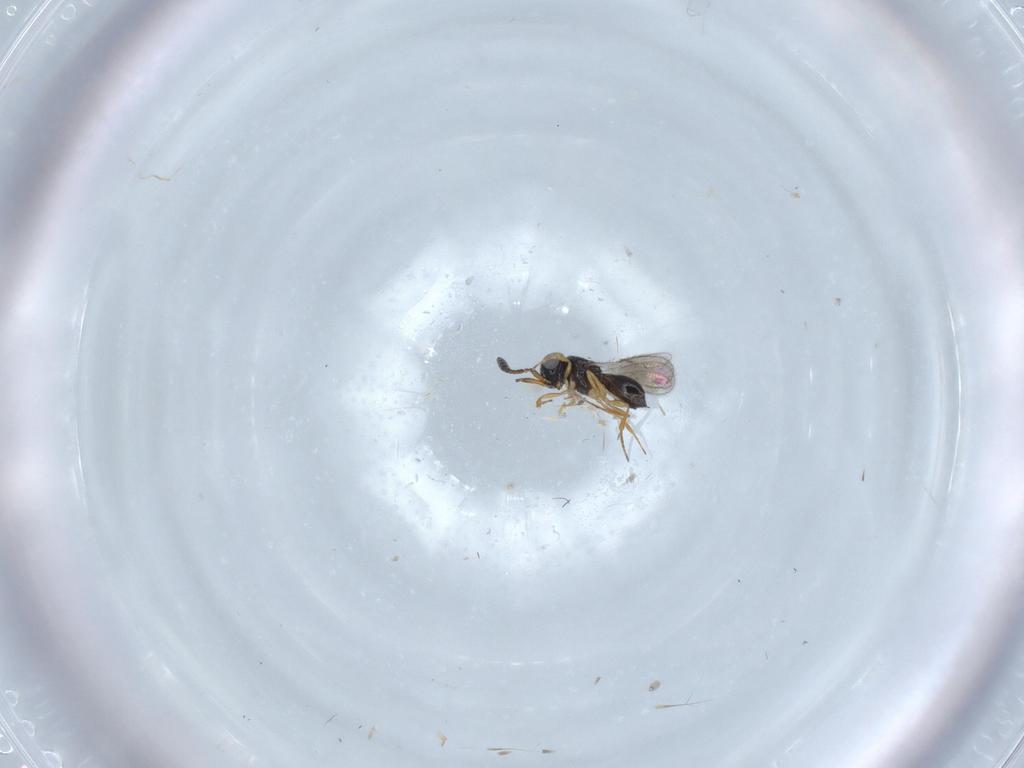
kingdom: Animalia
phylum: Arthropoda
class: Insecta
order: Hymenoptera
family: Scelionidae
